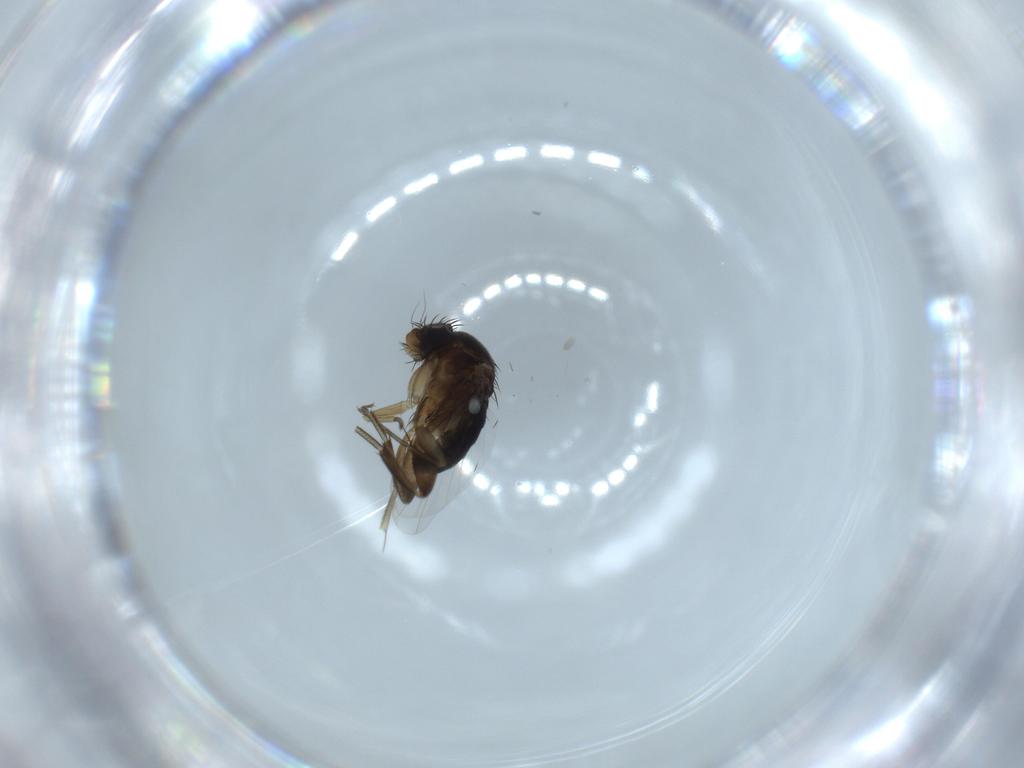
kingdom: Animalia
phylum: Arthropoda
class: Insecta
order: Diptera
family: Phoridae
